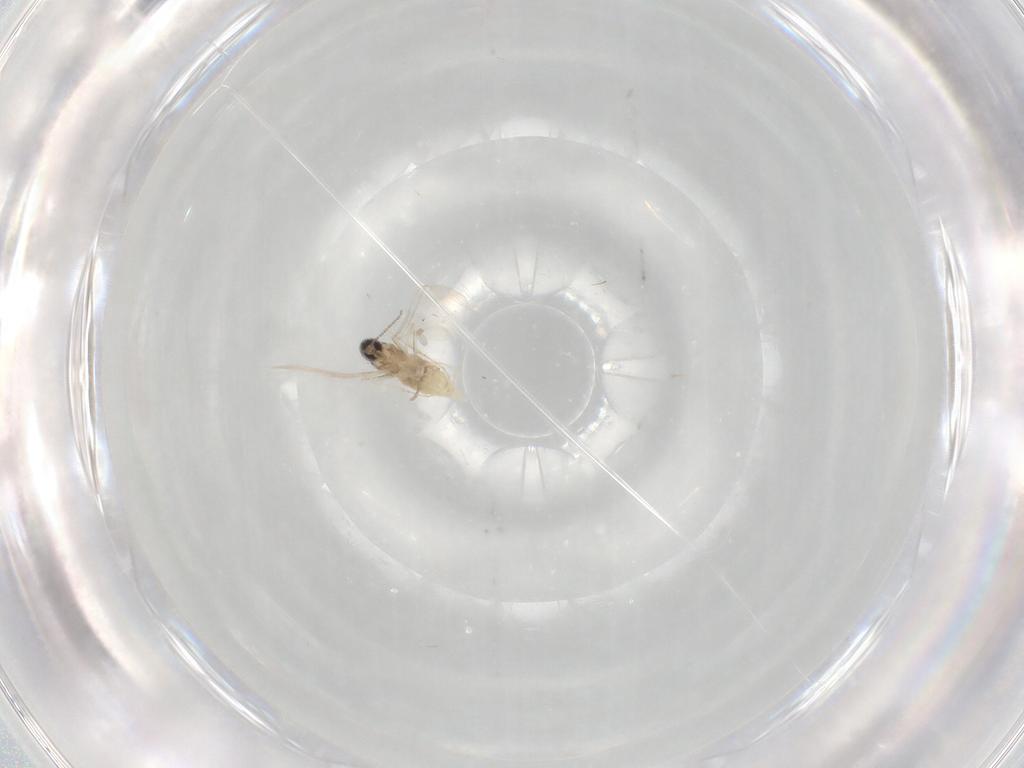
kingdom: Animalia
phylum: Arthropoda
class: Insecta
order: Diptera
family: Cecidomyiidae
